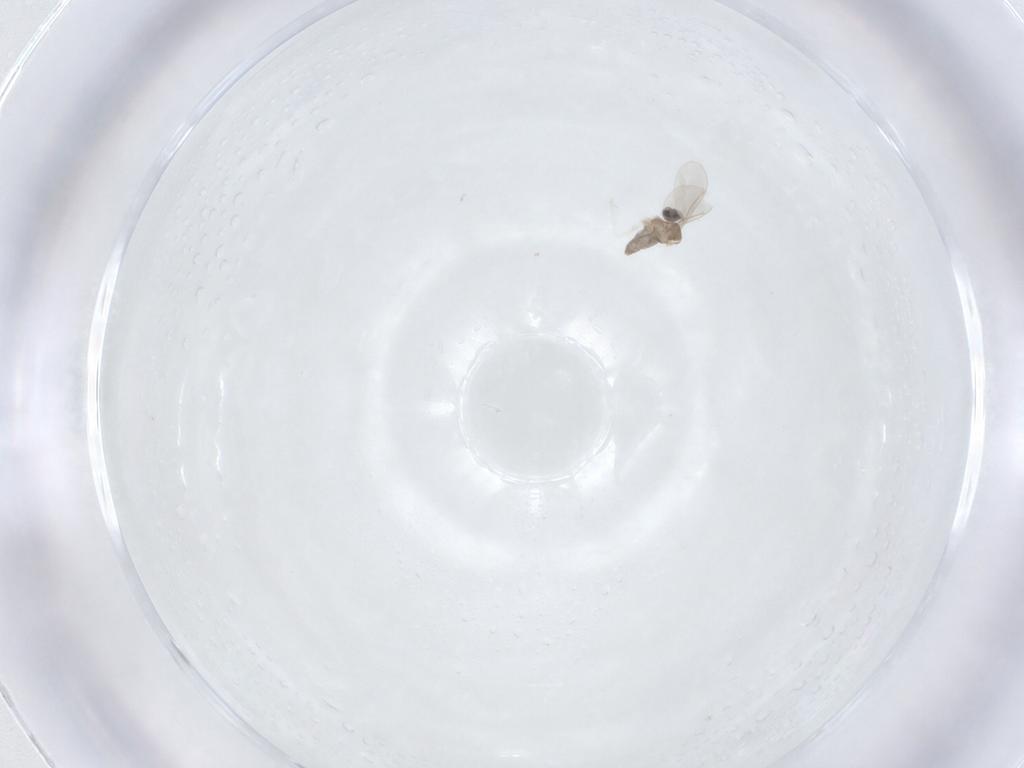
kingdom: Animalia
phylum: Arthropoda
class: Insecta
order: Diptera
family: Cecidomyiidae
